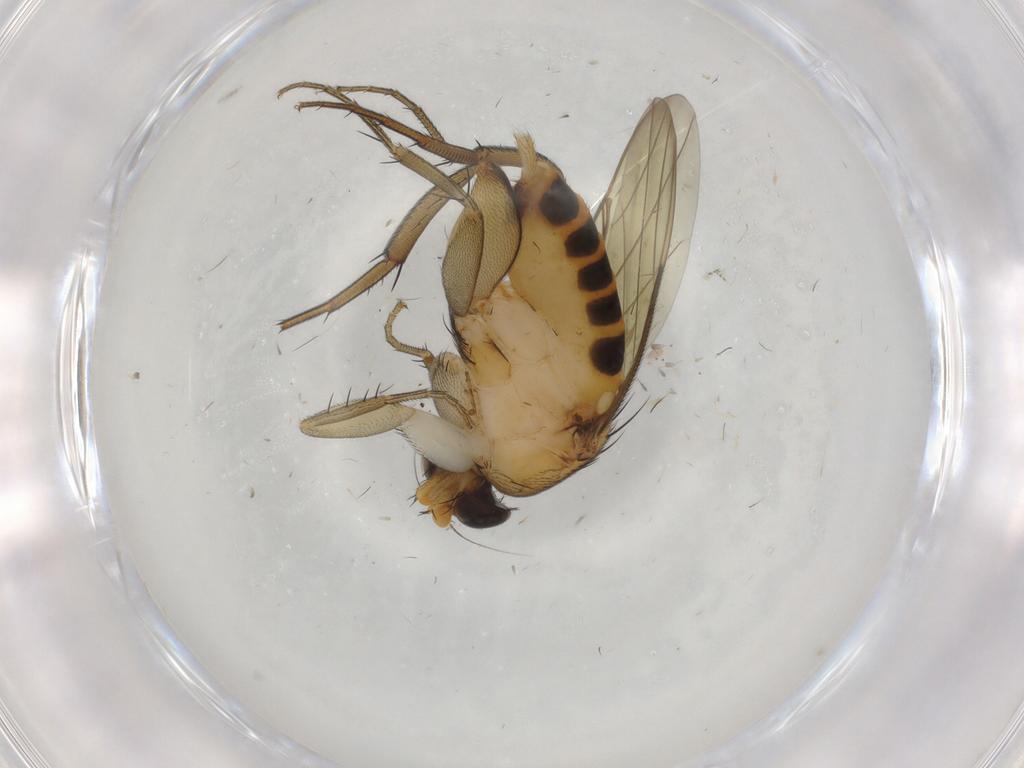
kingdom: Animalia
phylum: Arthropoda
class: Insecta
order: Diptera
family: Phoridae
